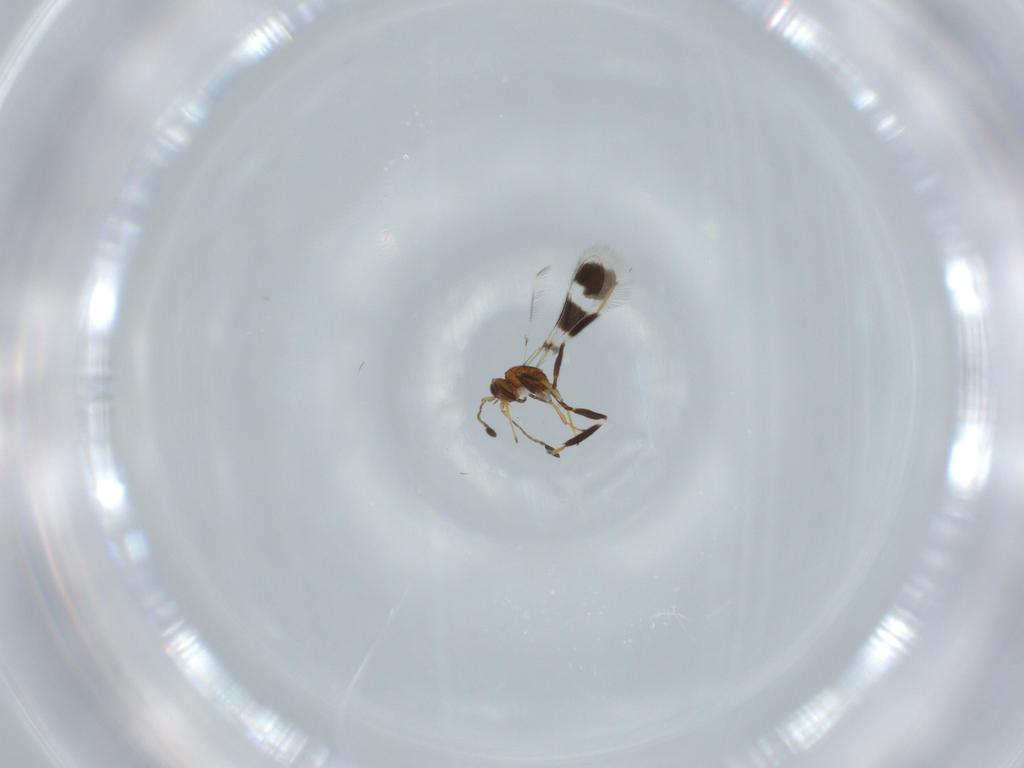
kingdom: Animalia
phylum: Arthropoda
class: Insecta
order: Hymenoptera
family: Mymaridae
